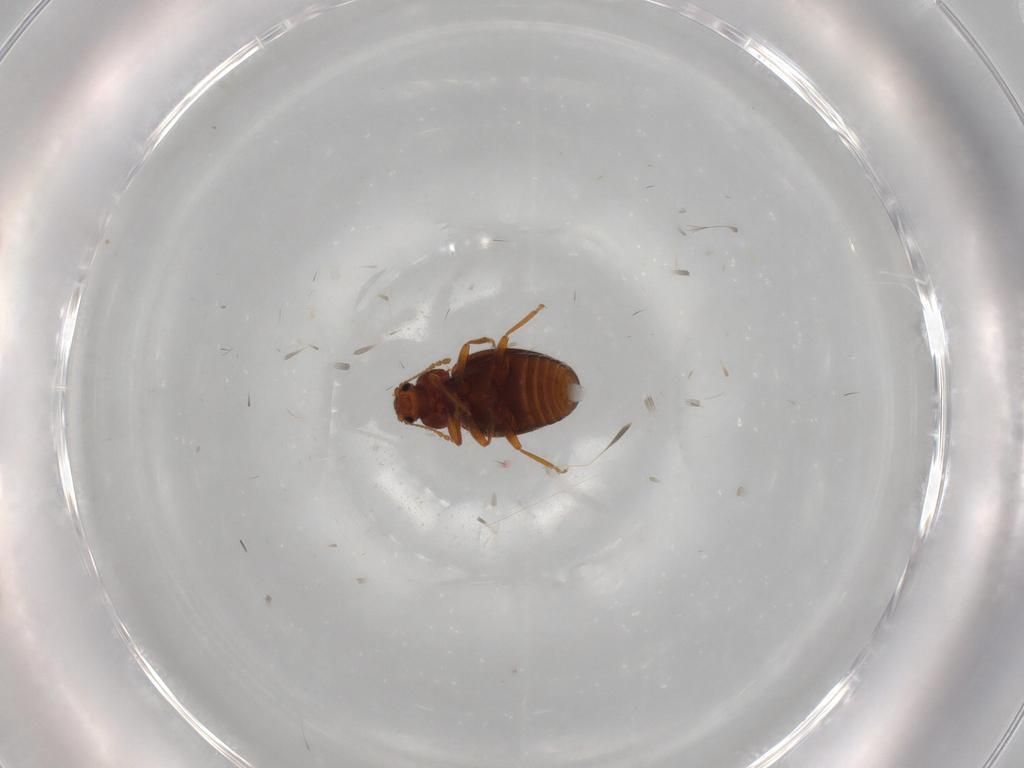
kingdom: Animalia
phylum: Arthropoda
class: Insecta
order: Coleoptera
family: Latridiidae
